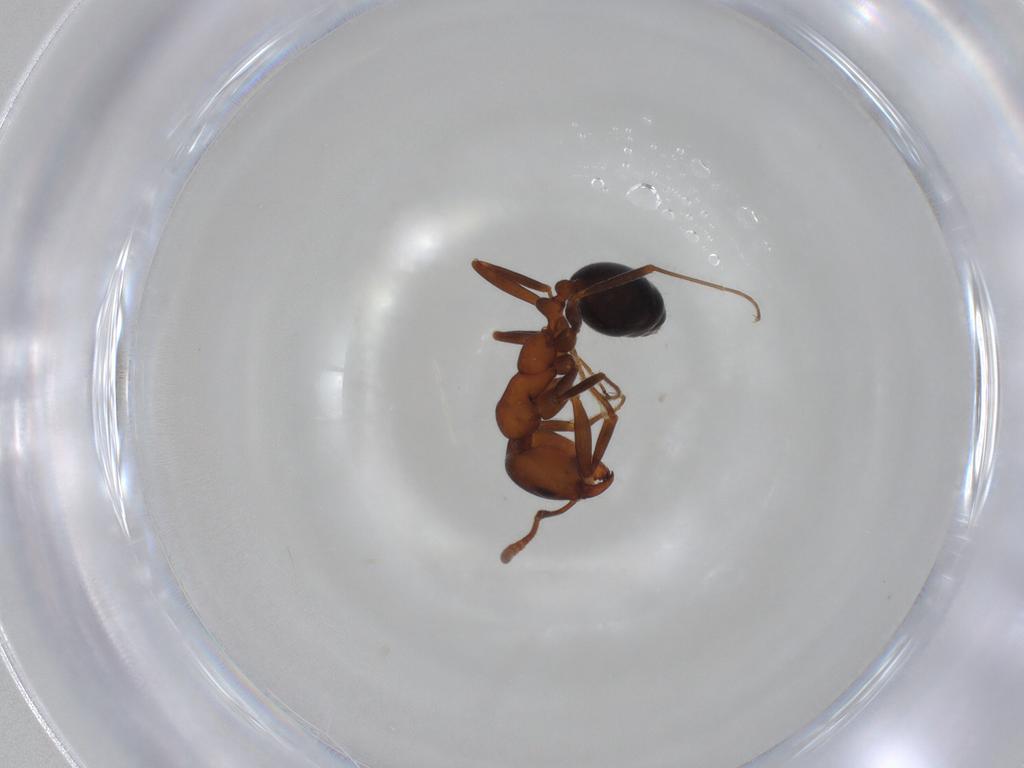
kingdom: Animalia
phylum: Arthropoda
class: Insecta
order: Hymenoptera
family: Formicidae
